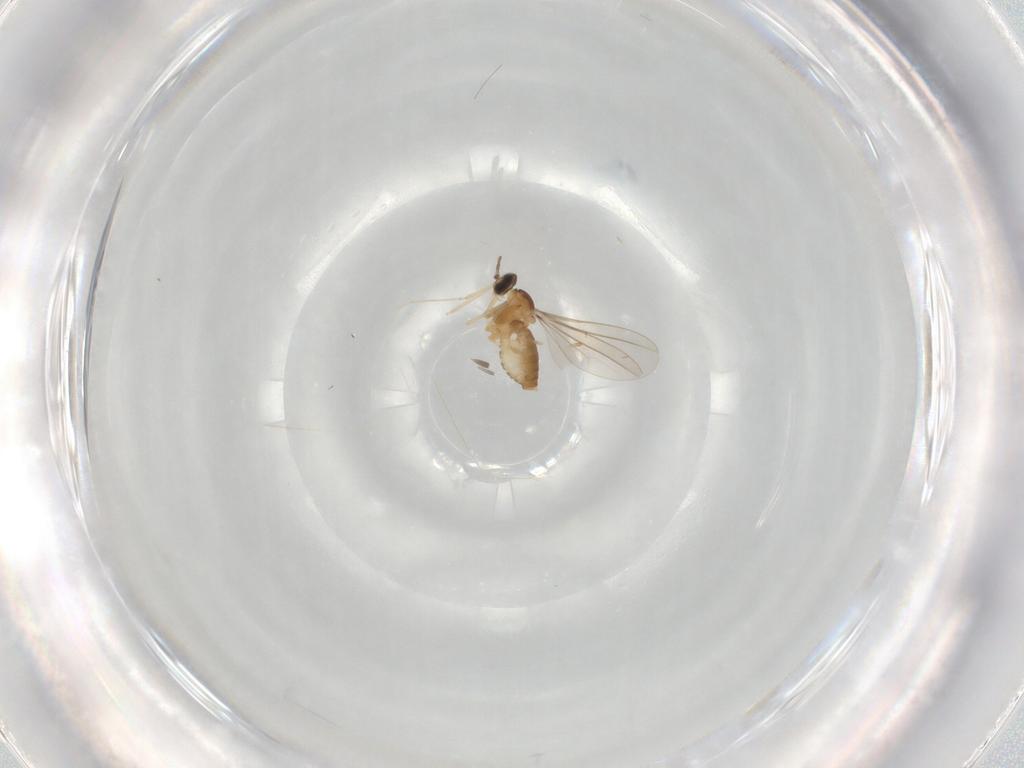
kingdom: Animalia
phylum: Arthropoda
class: Insecta
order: Diptera
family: Cecidomyiidae
